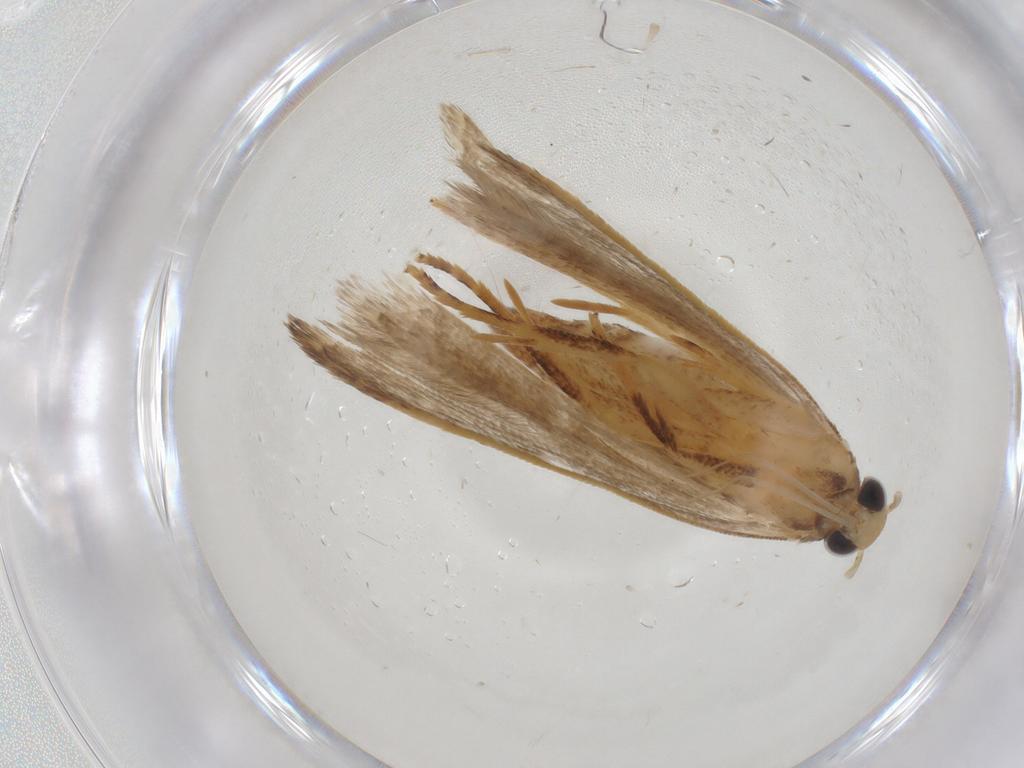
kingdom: Animalia
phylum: Arthropoda
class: Insecta
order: Lepidoptera
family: Gelechiidae
